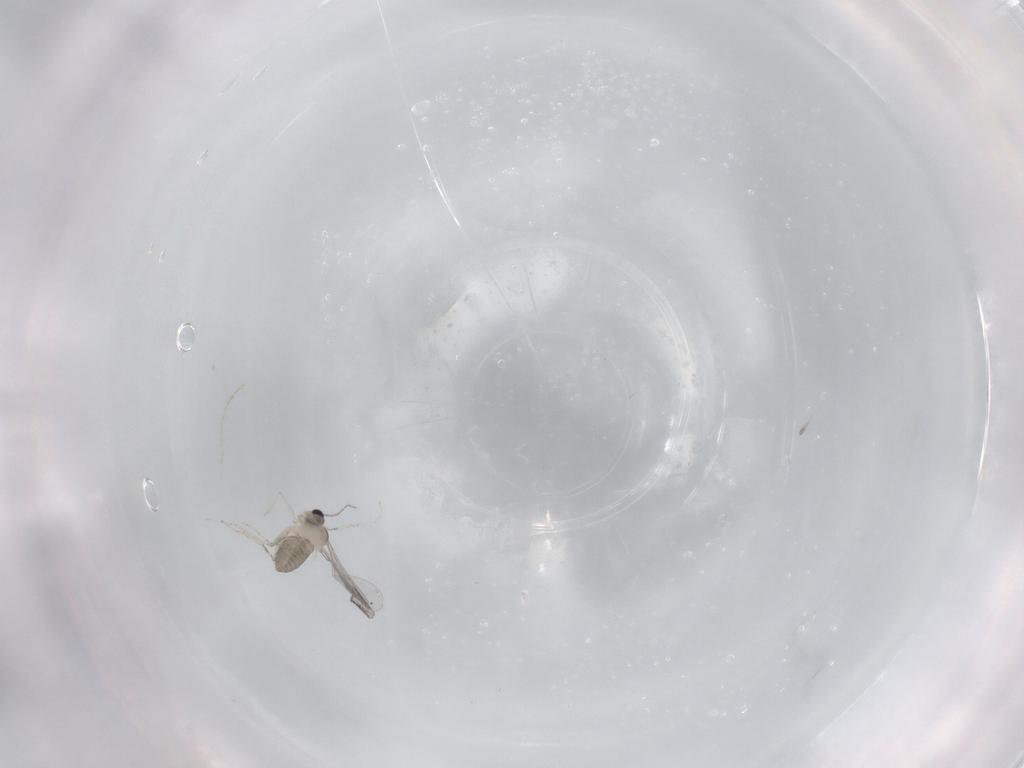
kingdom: Animalia
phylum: Arthropoda
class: Insecta
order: Diptera
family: Cecidomyiidae
